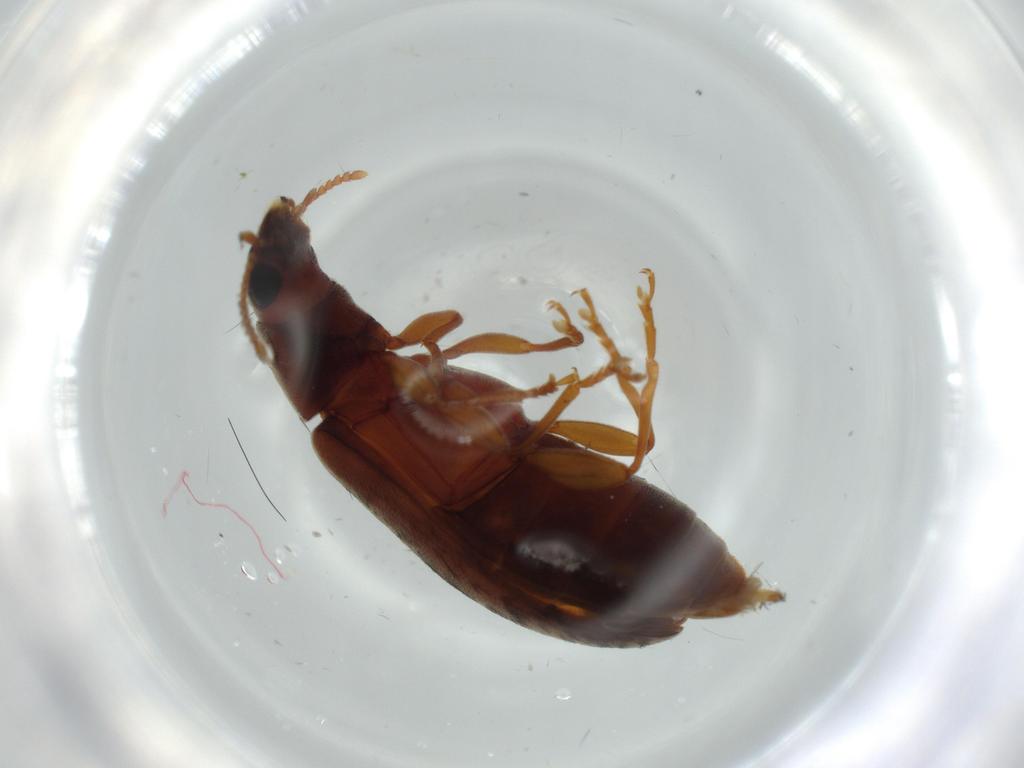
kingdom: Animalia
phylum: Arthropoda
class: Insecta
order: Coleoptera
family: Mycteridae
